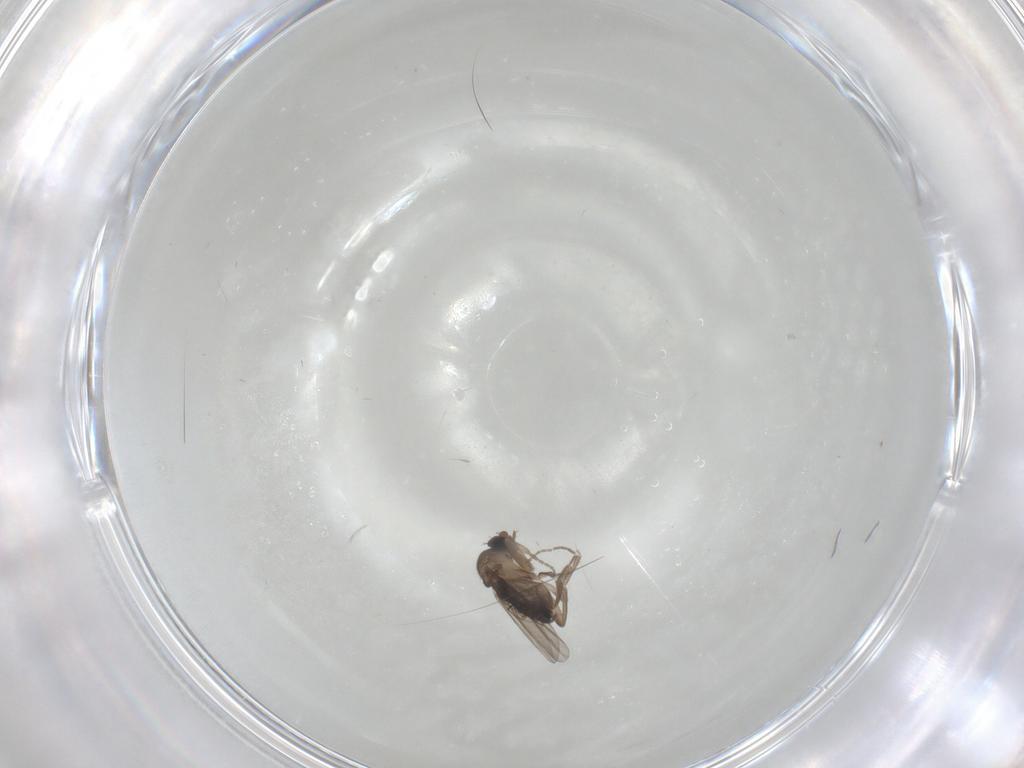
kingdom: Animalia
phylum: Arthropoda
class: Insecta
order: Diptera
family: Phoridae
